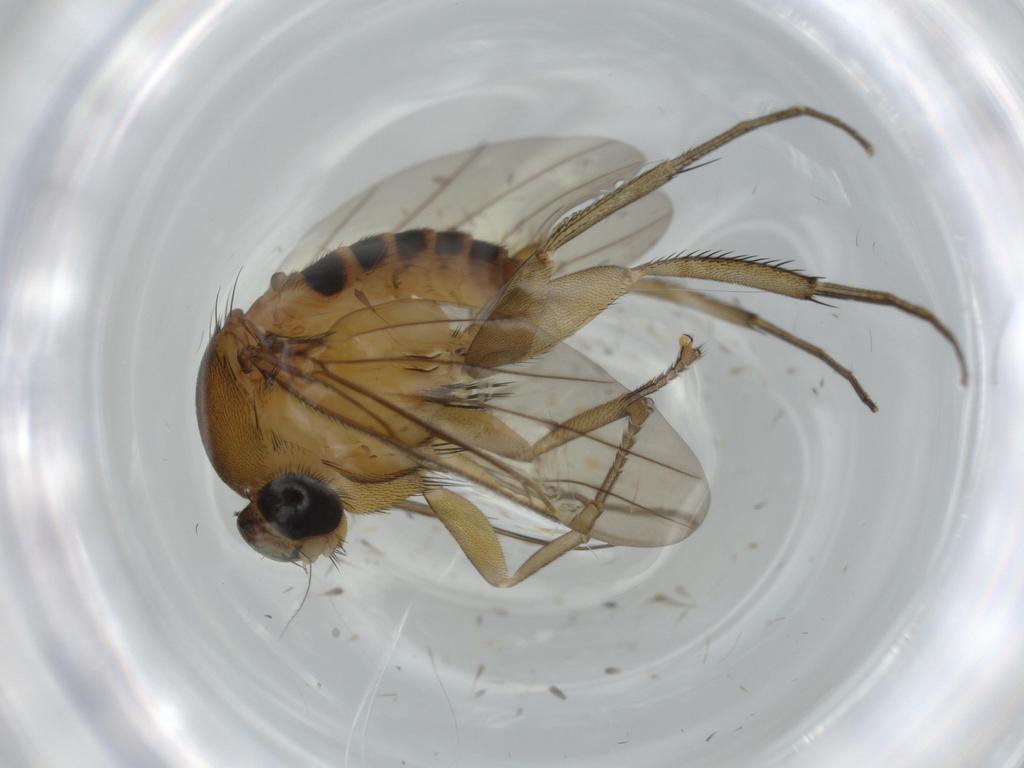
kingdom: Animalia
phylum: Arthropoda
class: Insecta
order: Diptera
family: Phoridae
